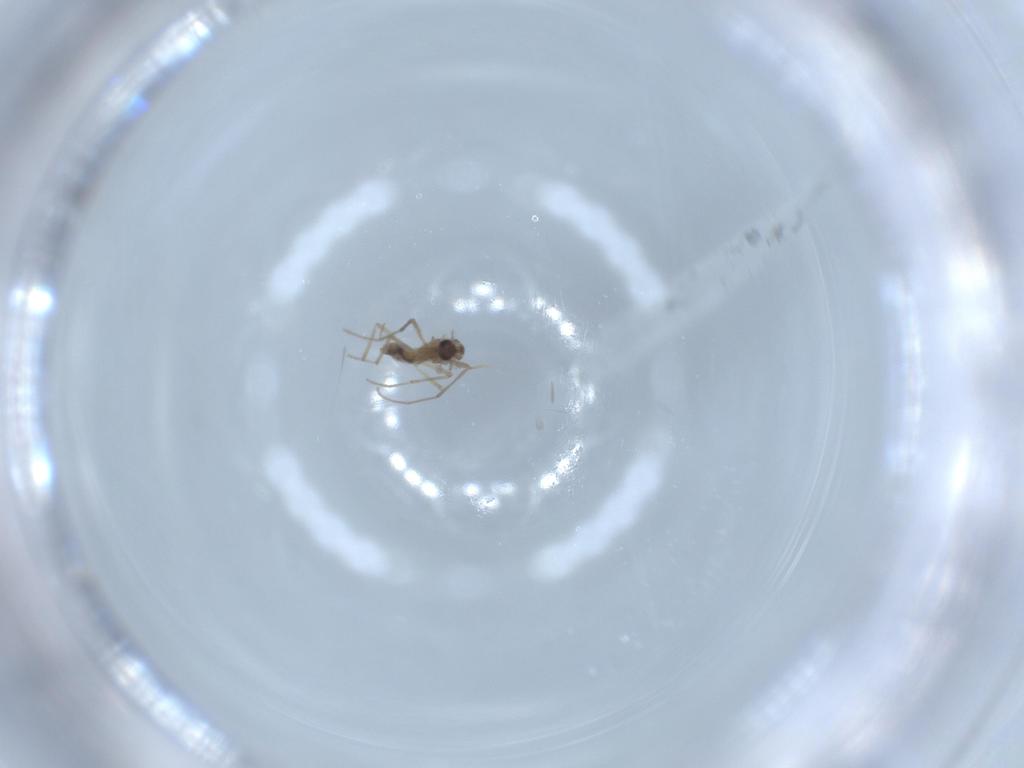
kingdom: Animalia
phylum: Arthropoda
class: Insecta
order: Diptera
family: Chironomidae
